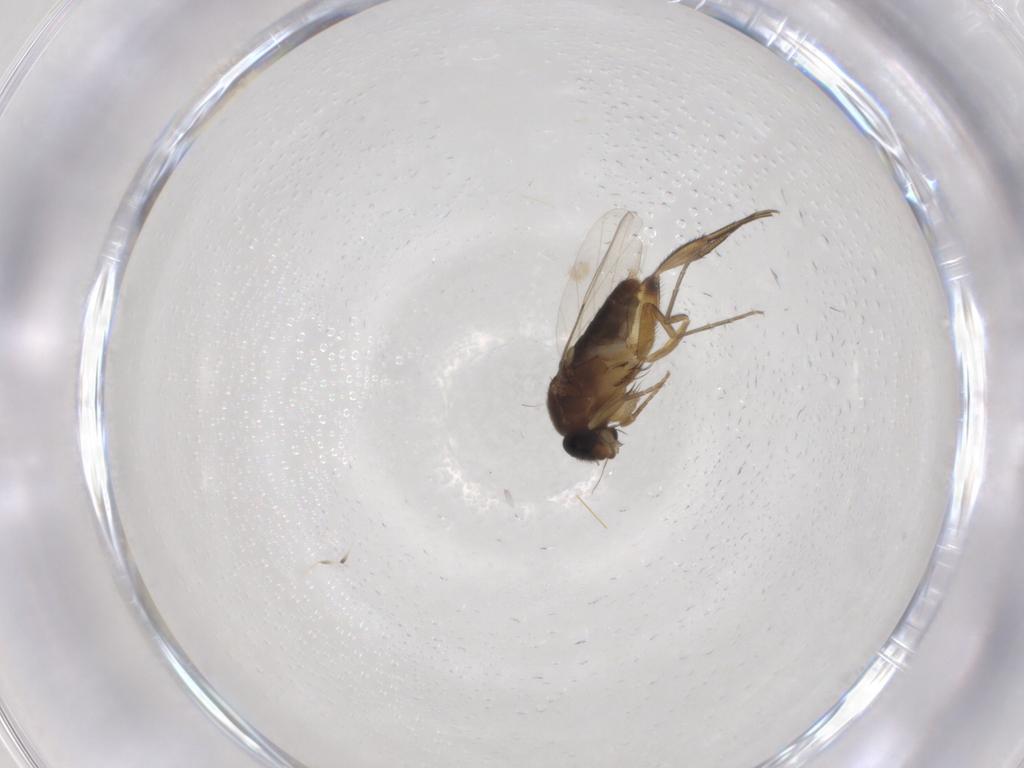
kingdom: Animalia
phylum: Arthropoda
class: Insecta
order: Diptera
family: Phoridae
